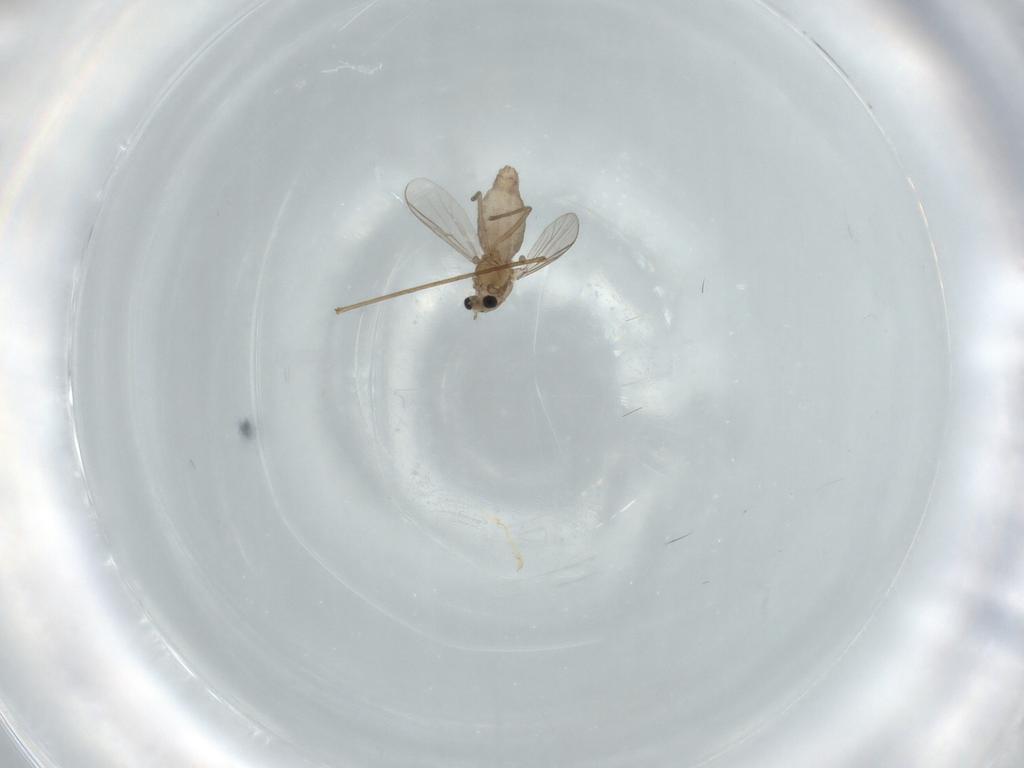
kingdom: Animalia
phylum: Arthropoda
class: Insecta
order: Diptera
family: Chironomidae
